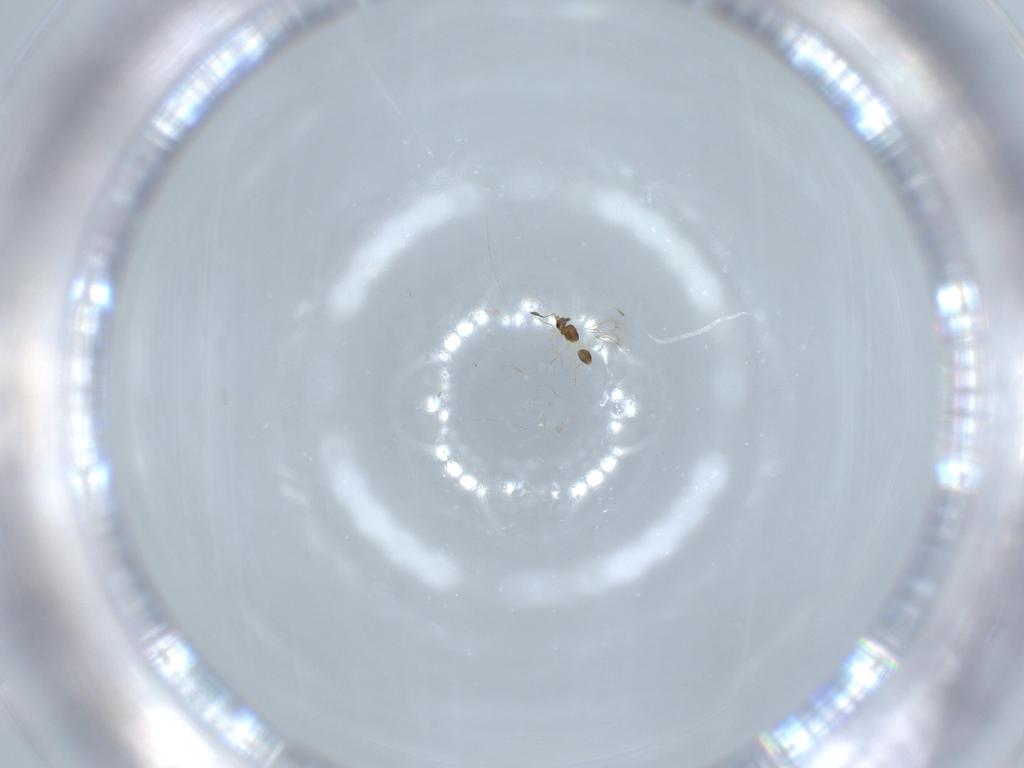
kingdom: Animalia
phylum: Arthropoda
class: Insecta
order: Hymenoptera
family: Mymarommatidae
